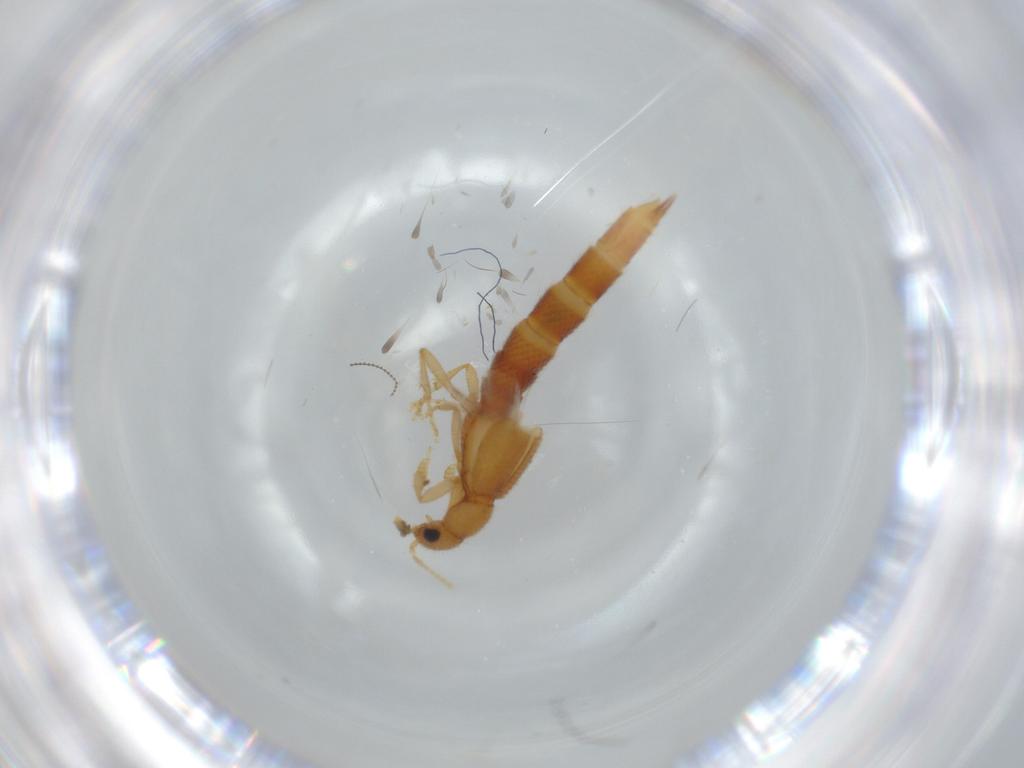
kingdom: Animalia
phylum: Arthropoda
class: Insecta
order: Coleoptera
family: Staphylinidae
